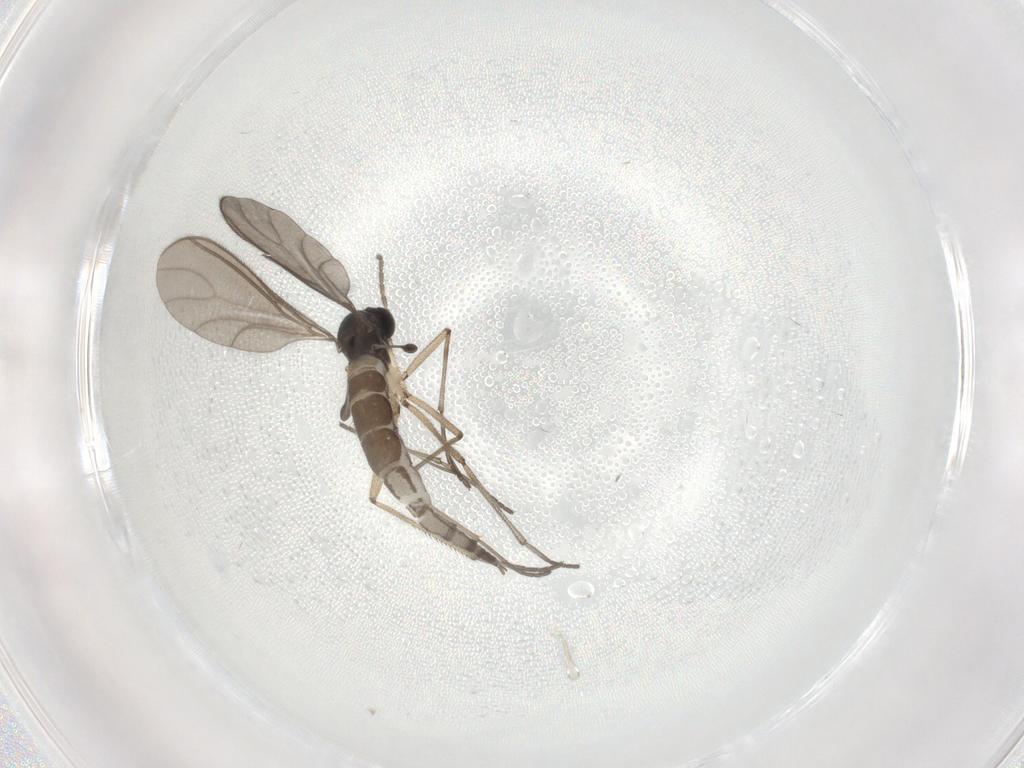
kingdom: Animalia
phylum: Arthropoda
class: Insecta
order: Diptera
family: Sciaridae
